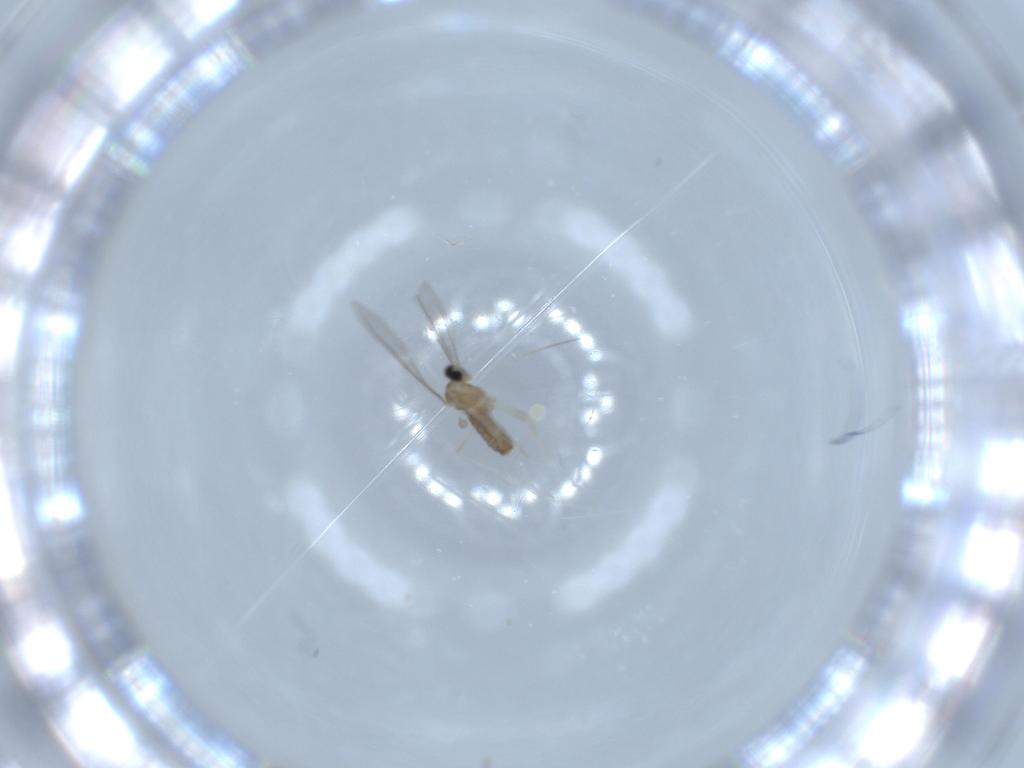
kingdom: Animalia
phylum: Arthropoda
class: Insecta
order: Diptera
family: Cecidomyiidae
